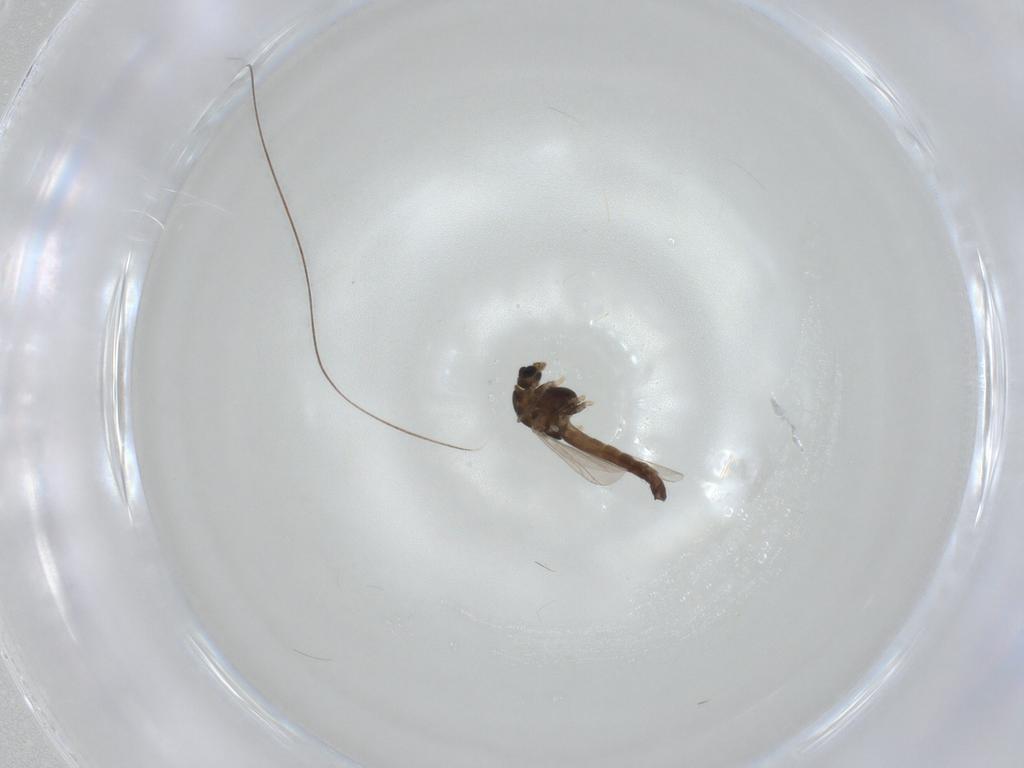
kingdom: Animalia
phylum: Arthropoda
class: Insecta
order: Diptera
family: Chironomidae
